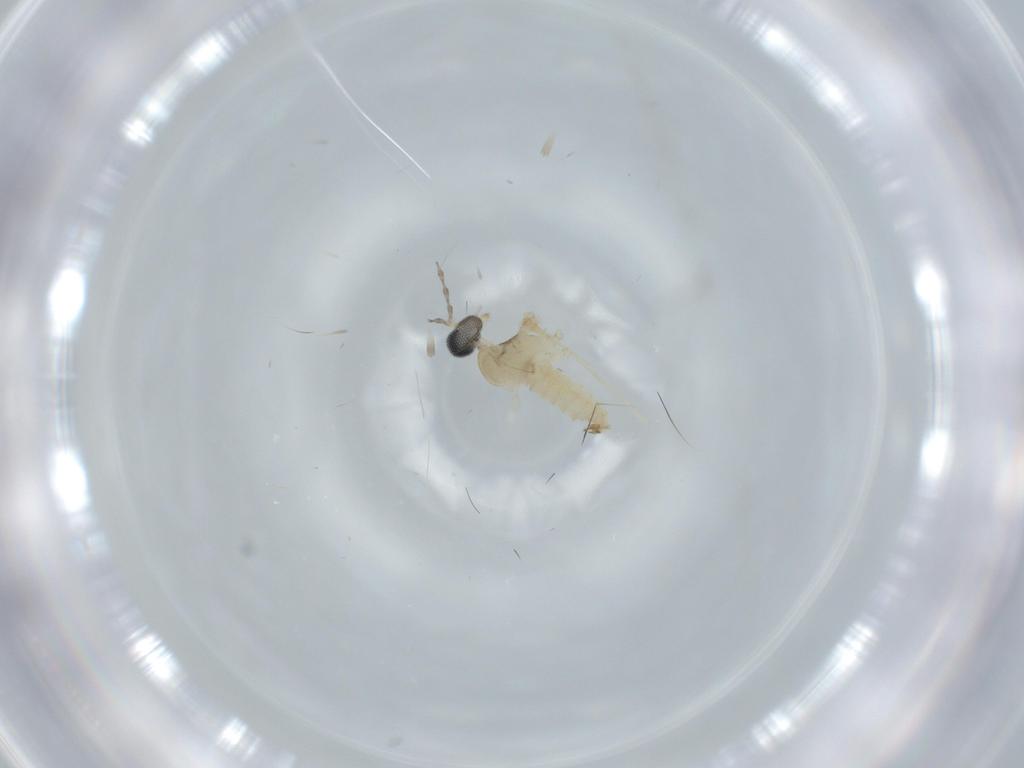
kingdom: Animalia
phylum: Arthropoda
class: Insecta
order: Diptera
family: Cecidomyiidae
